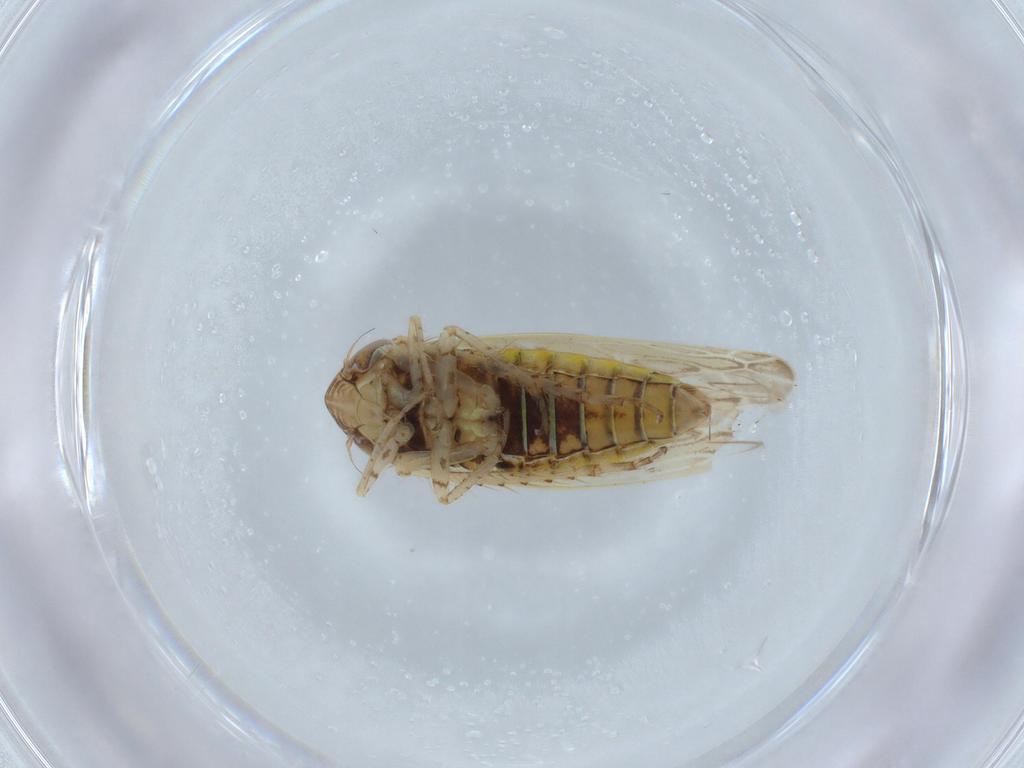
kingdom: Animalia
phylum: Arthropoda
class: Insecta
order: Hemiptera
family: Cicadellidae
